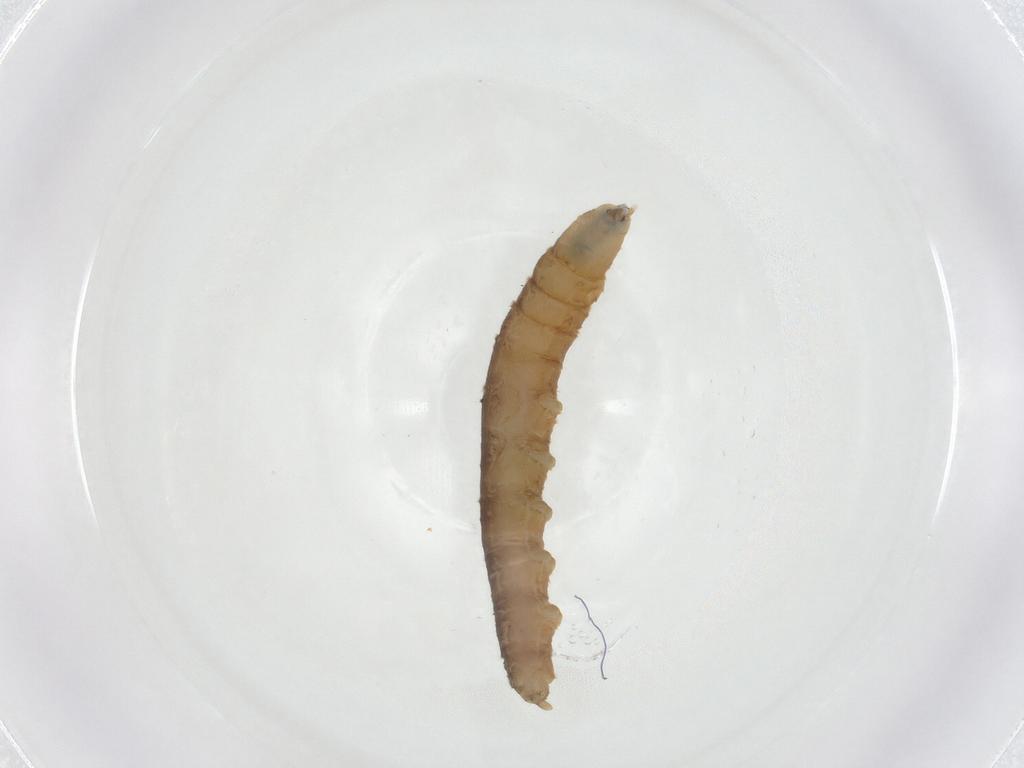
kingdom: Animalia
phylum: Arthropoda
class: Insecta
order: Diptera
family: Pediciidae
